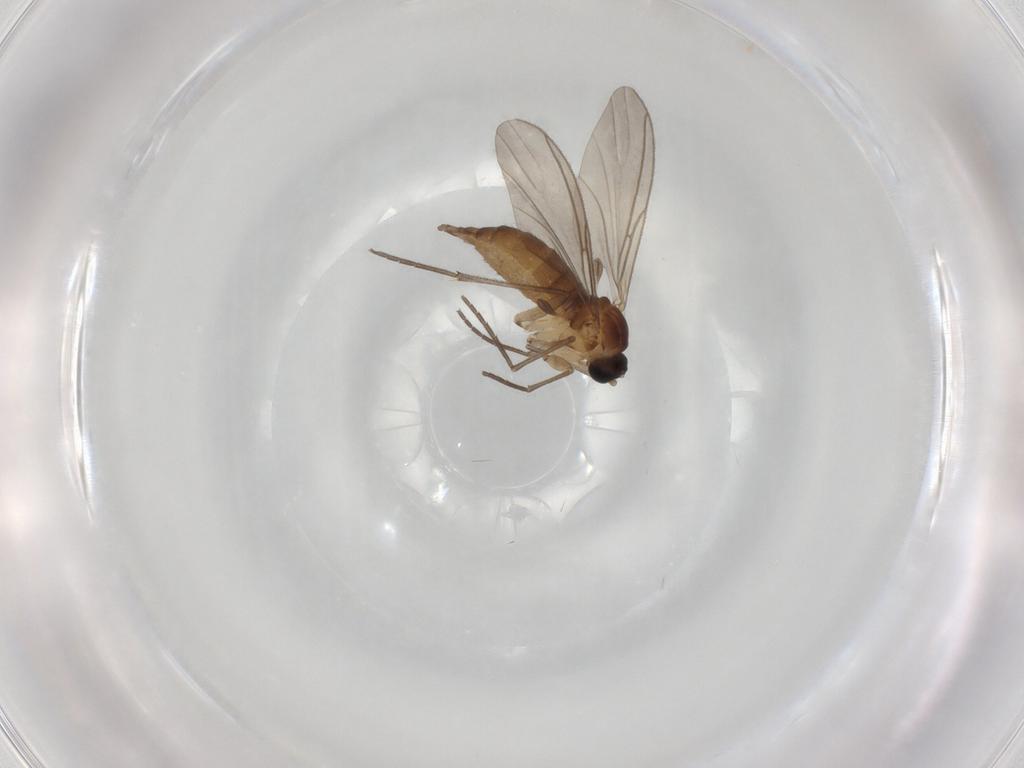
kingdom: Animalia
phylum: Arthropoda
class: Insecta
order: Diptera
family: Sciaridae
